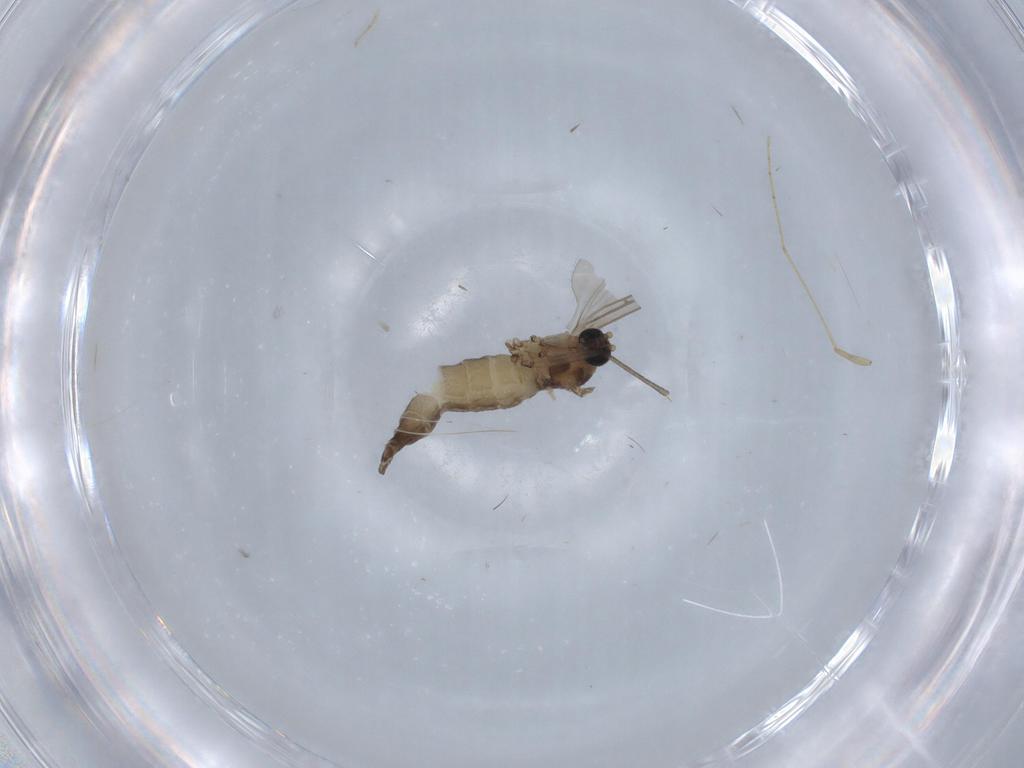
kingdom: Animalia
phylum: Arthropoda
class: Insecta
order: Diptera
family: Sciaridae
